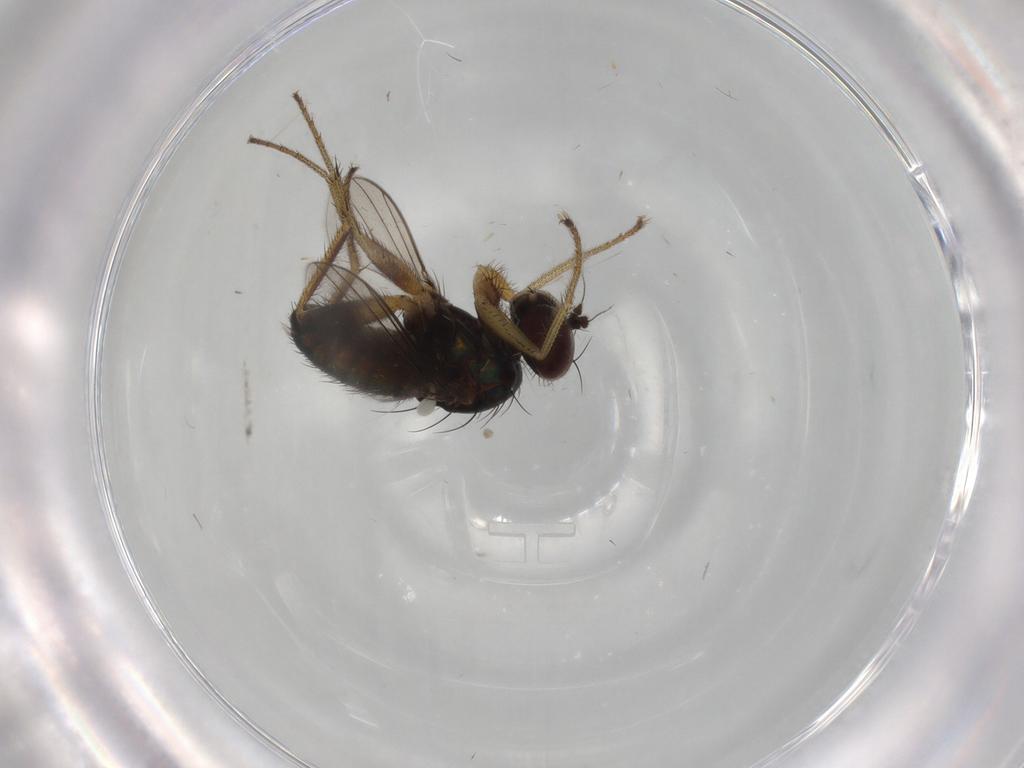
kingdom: Animalia
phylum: Arthropoda
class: Insecta
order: Diptera
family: Dolichopodidae
